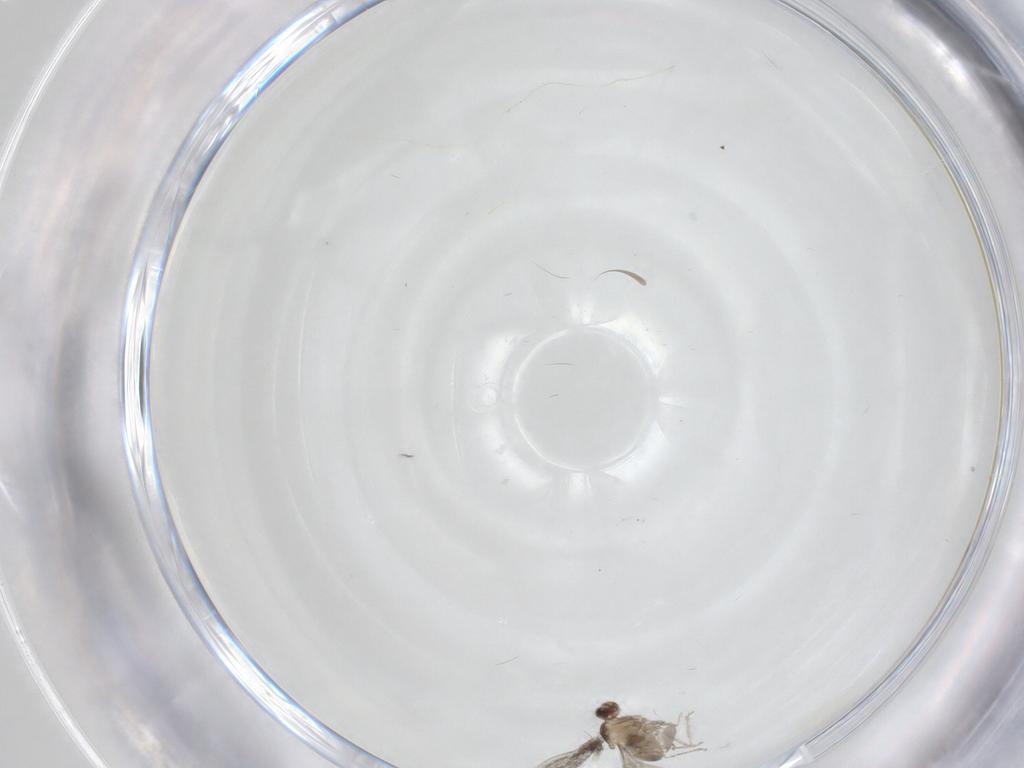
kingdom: Animalia
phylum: Arthropoda
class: Insecta
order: Diptera
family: Cecidomyiidae
